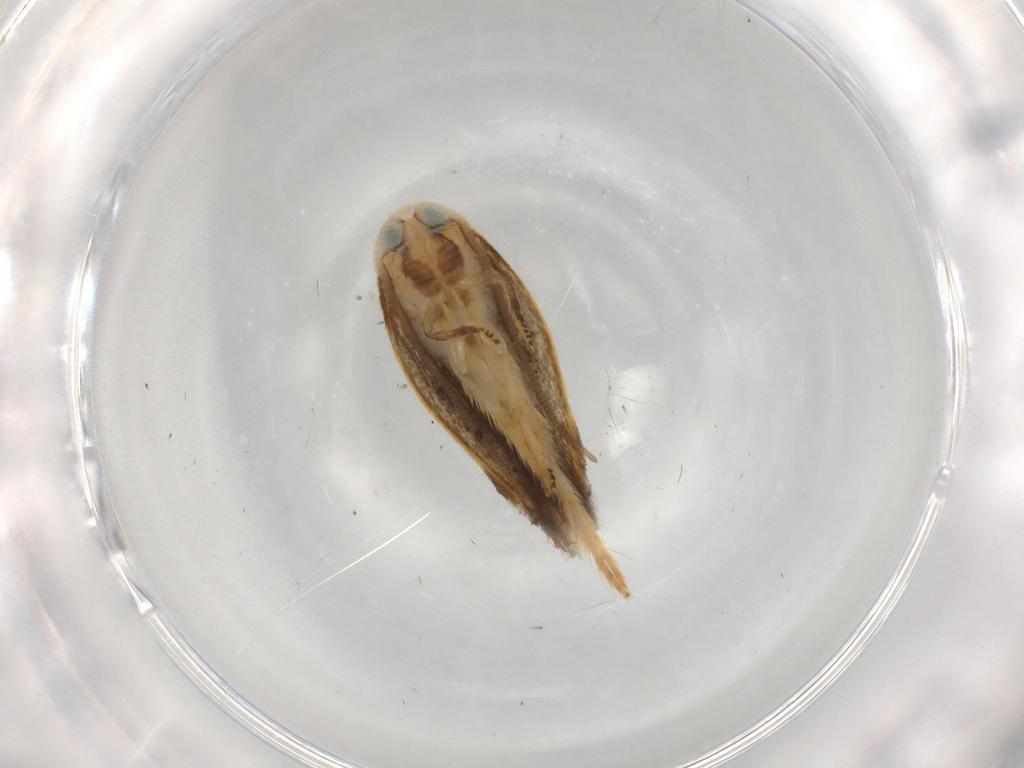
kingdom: Animalia
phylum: Arthropoda
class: Insecta
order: Lepidoptera
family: Opostegidae
